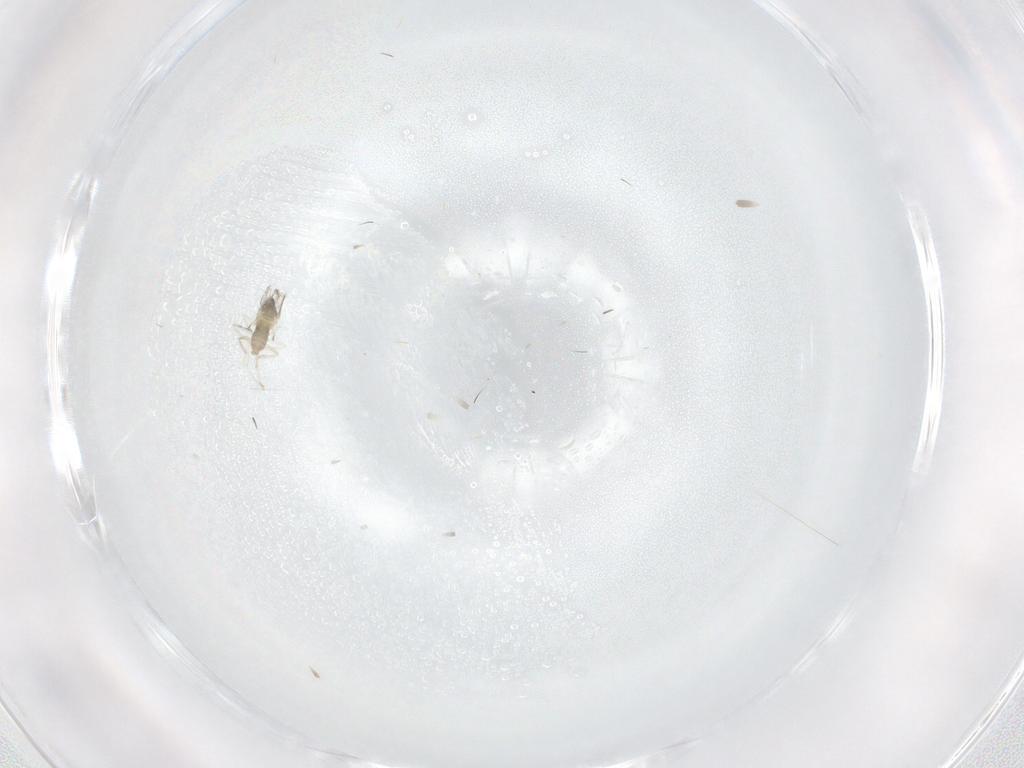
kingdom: Animalia
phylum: Arthropoda
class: Insecta
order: Diptera
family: Cecidomyiidae
